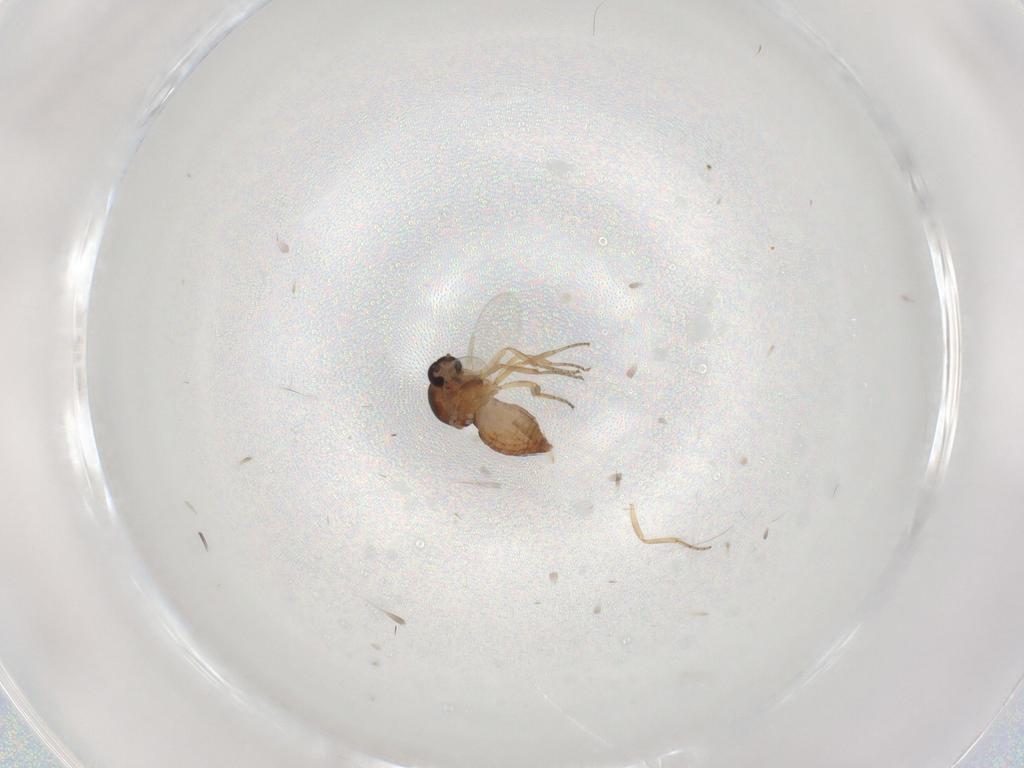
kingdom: Animalia
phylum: Arthropoda
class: Insecta
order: Diptera
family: Ceratopogonidae
